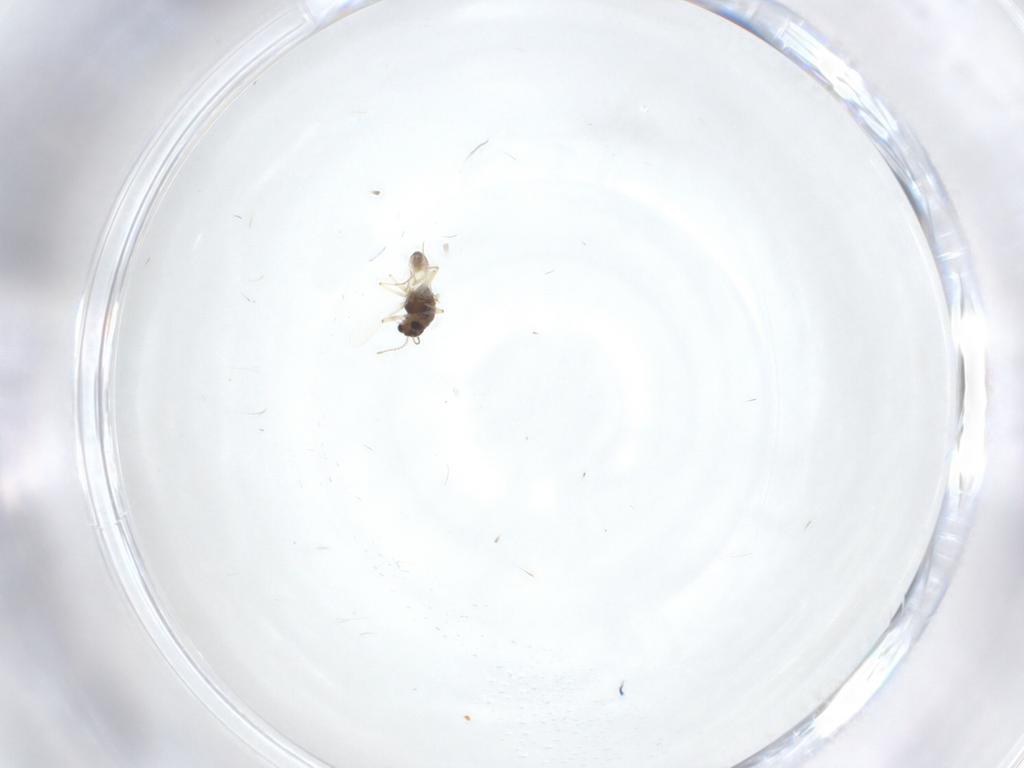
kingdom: Animalia
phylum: Arthropoda
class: Insecta
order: Diptera
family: Chironomidae
